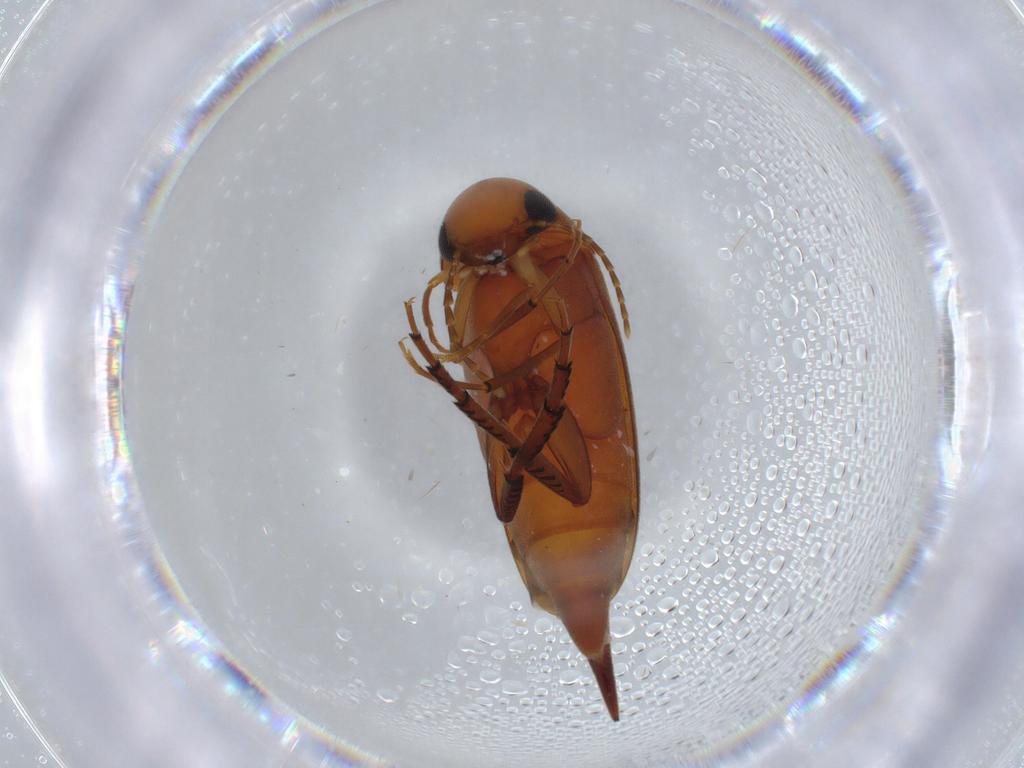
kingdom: Animalia
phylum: Arthropoda
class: Insecta
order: Coleoptera
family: Mordellidae
